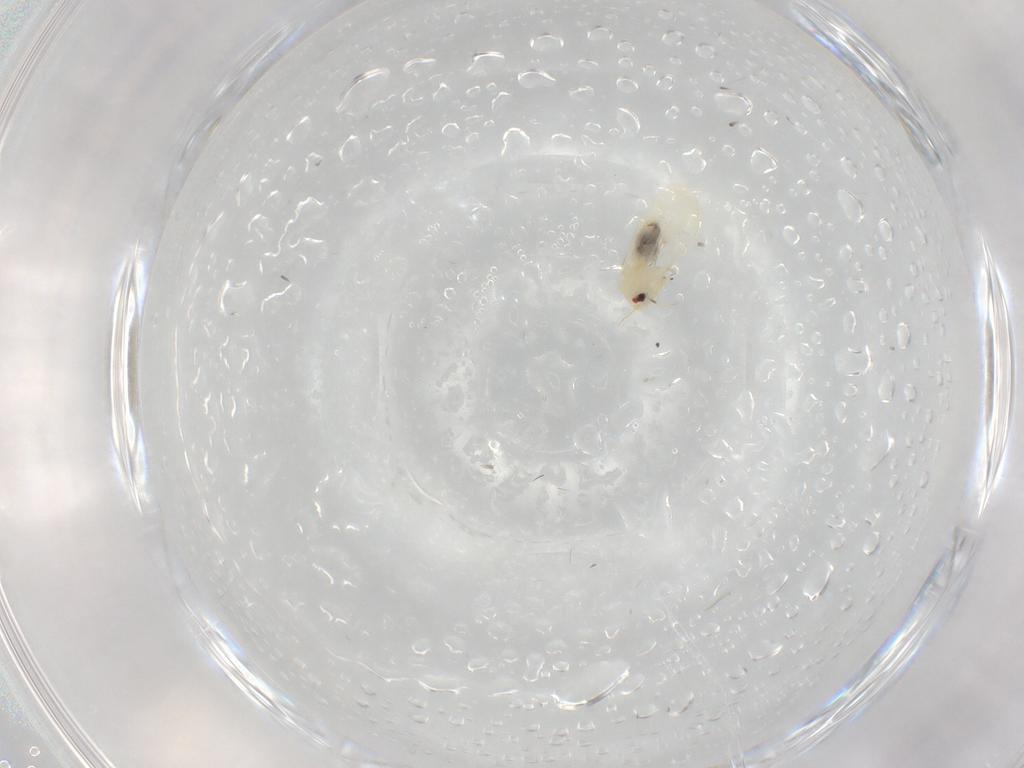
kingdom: Animalia
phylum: Arthropoda
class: Insecta
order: Hemiptera
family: Aleyrodidae
